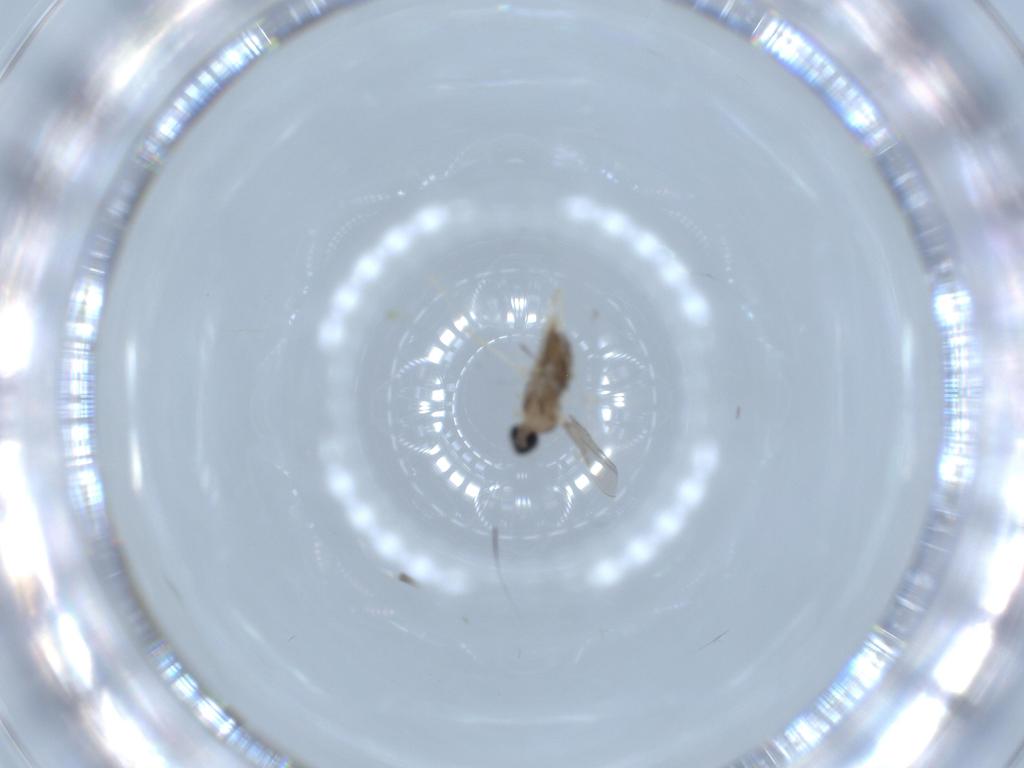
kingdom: Animalia
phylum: Arthropoda
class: Insecta
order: Diptera
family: Cecidomyiidae
